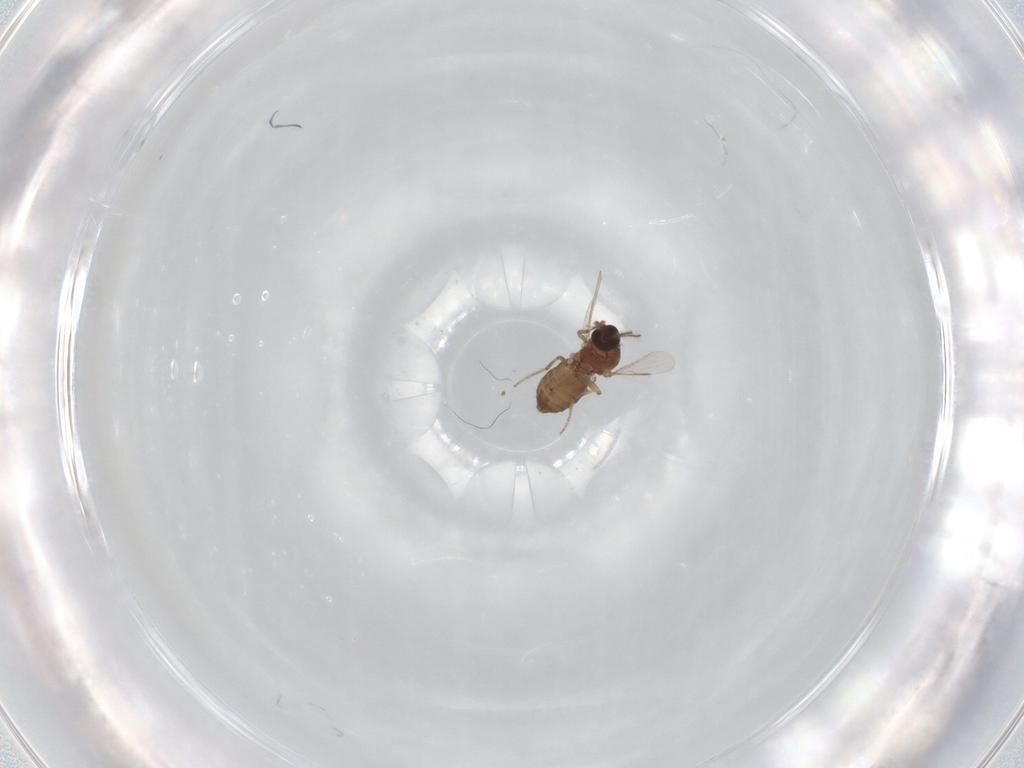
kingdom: Animalia
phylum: Arthropoda
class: Insecta
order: Diptera
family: Ceratopogonidae
